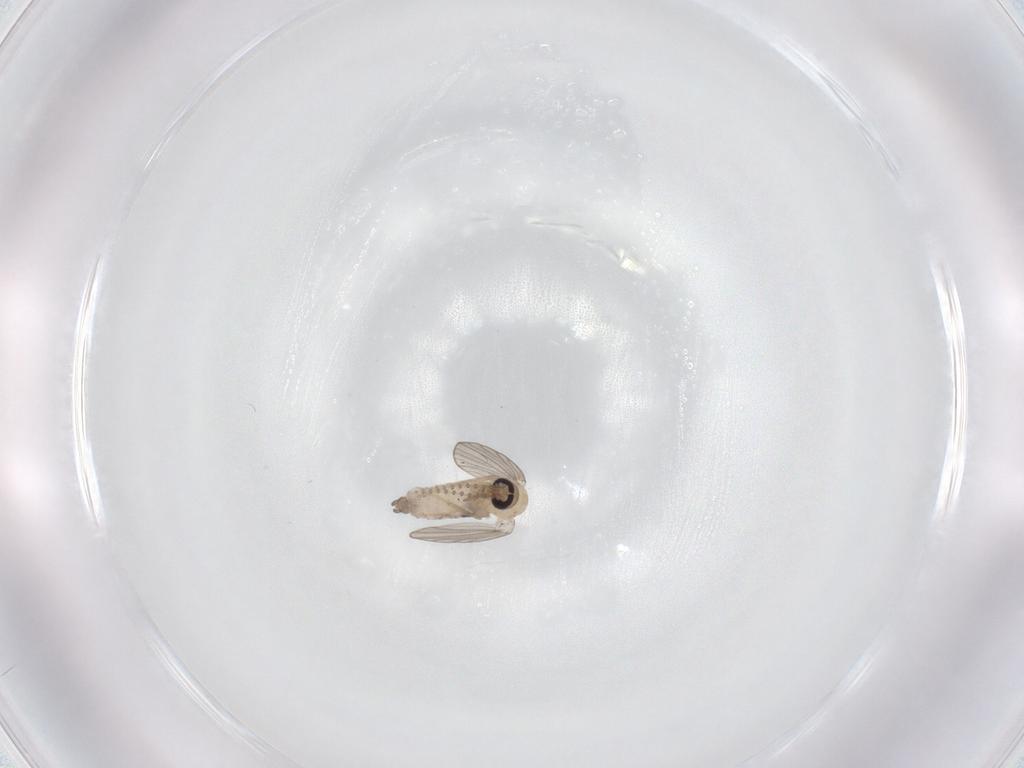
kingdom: Animalia
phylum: Arthropoda
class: Insecta
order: Diptera
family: Psychodidae
